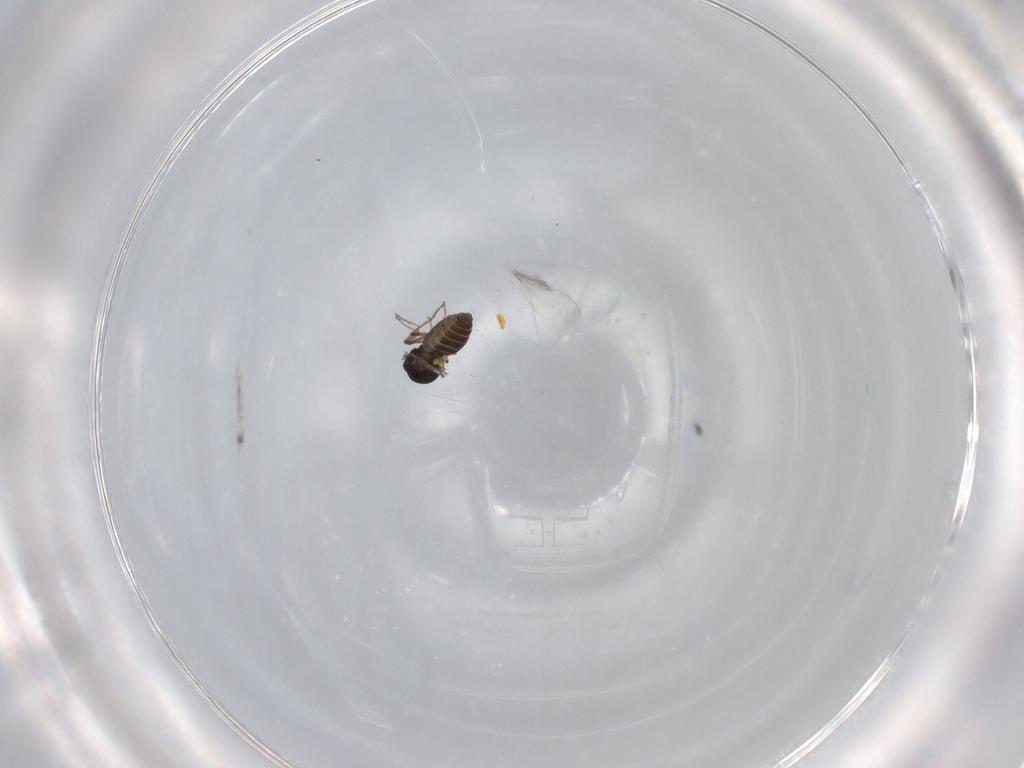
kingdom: Animalia
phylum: Arthropoda
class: Insecta
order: Diptera
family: Ceratopogonidae
